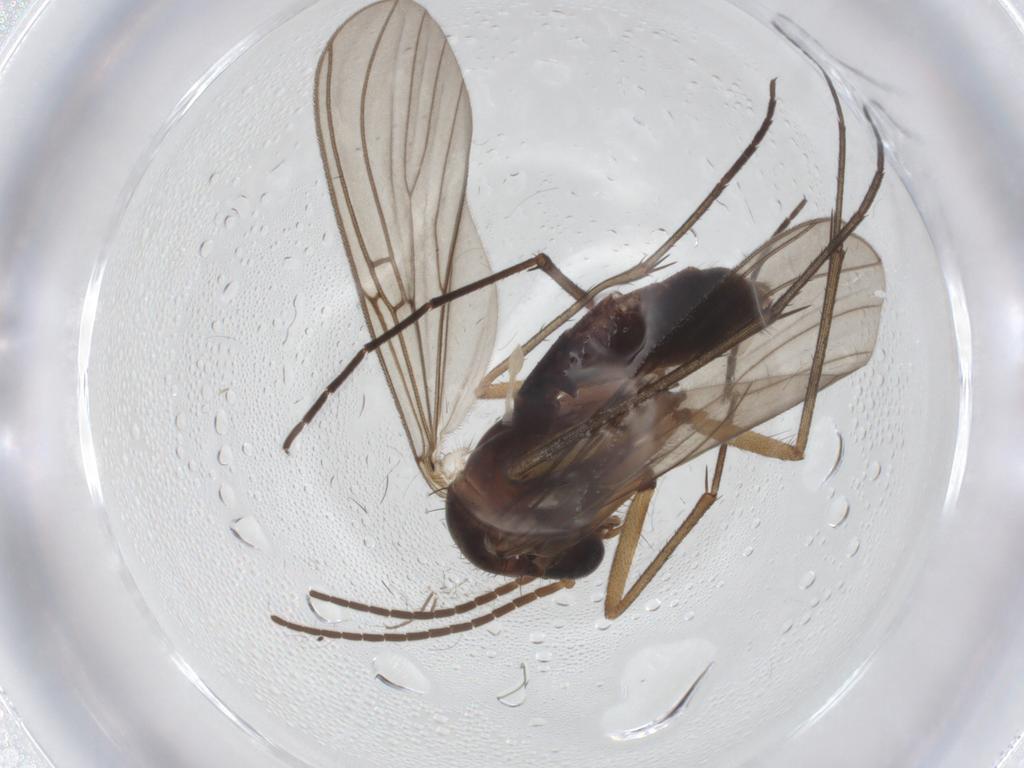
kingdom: Animalia
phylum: Arthropoda
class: Insecta
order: Diptera
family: Mycetophilidae
